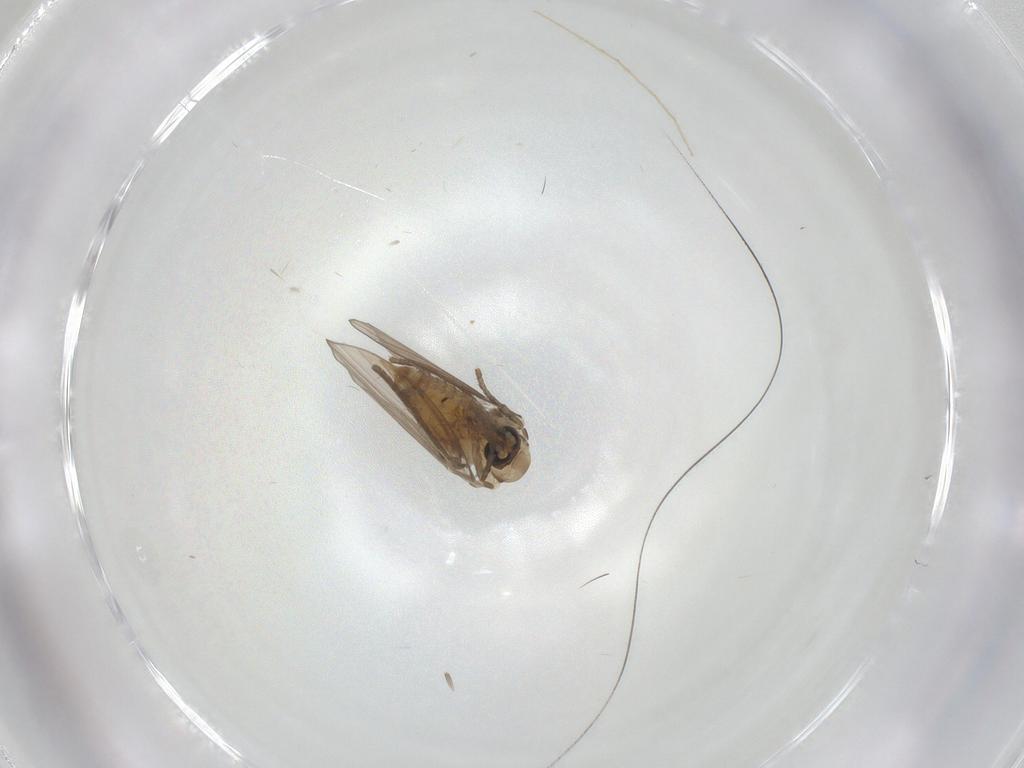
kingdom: Animalia
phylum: Arthropoda
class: Insecta
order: Diptera
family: Psychodidae
